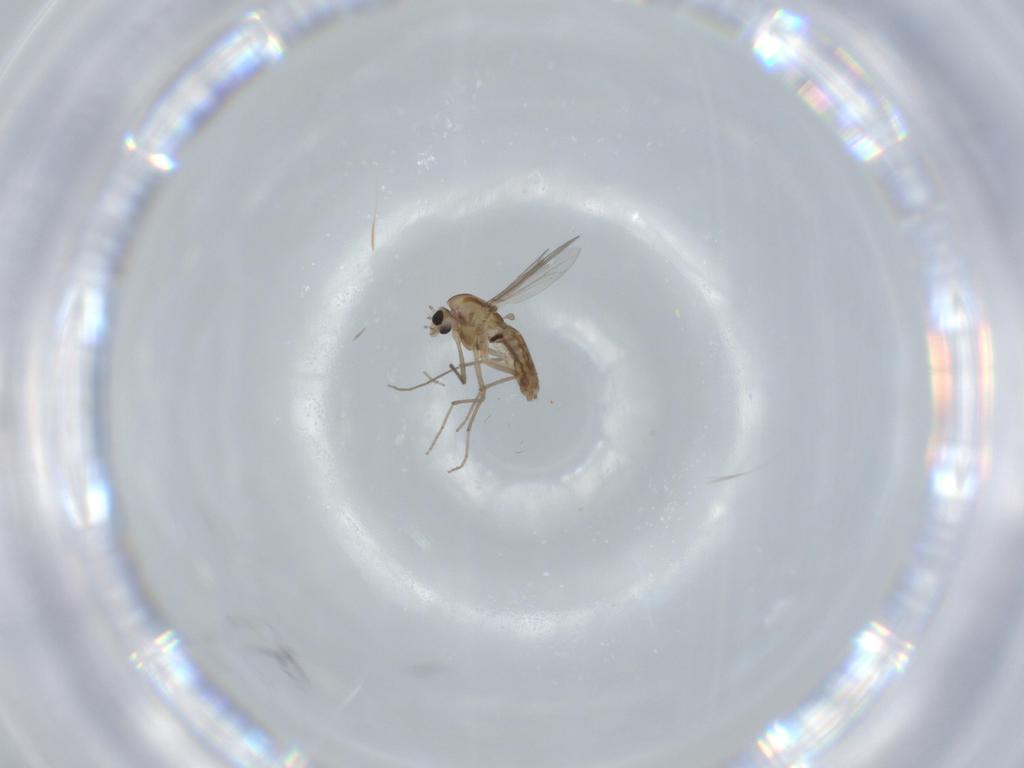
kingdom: Animalia
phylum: Arthropoda
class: Insecta
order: Diptera
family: Chironomidae
